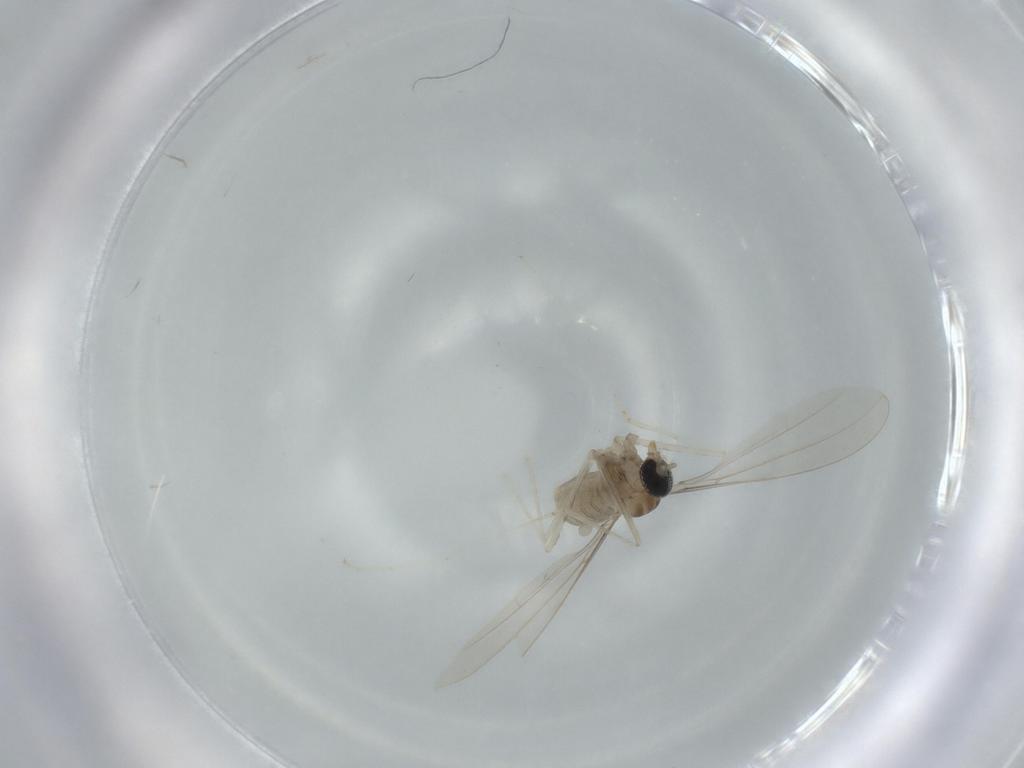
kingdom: Animalia
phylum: Arthropoda
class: Insecta
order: Diptera
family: Cecidomyiidae
